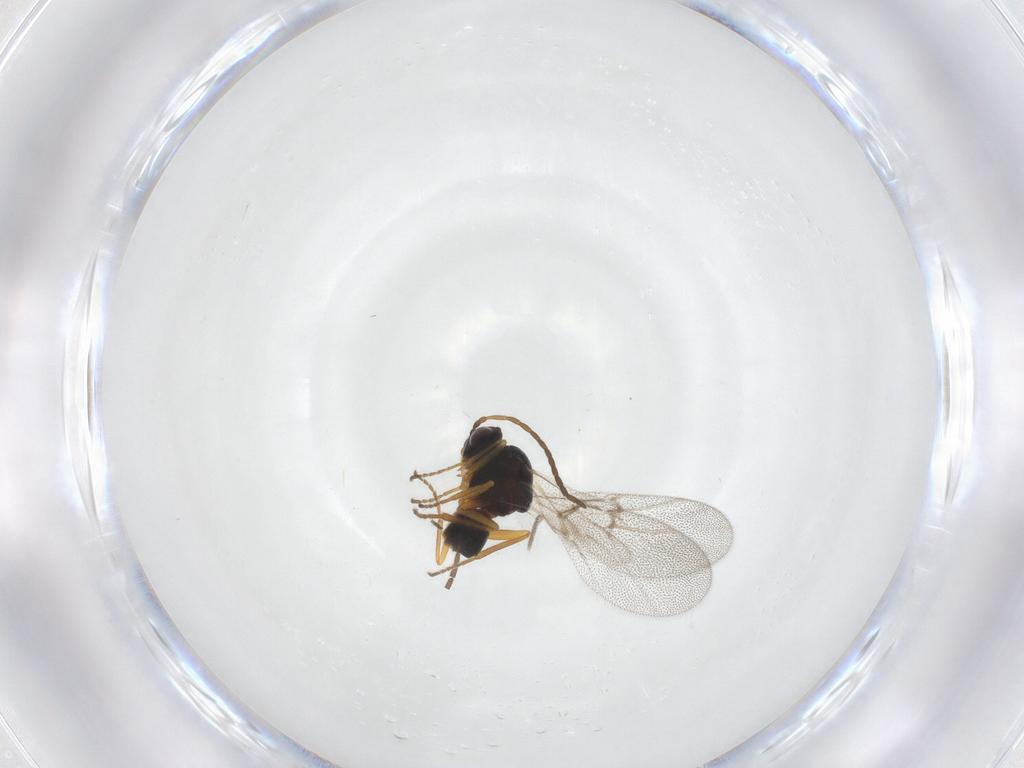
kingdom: Animalia
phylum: Arthropoda
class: Insecta
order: Hymenoptera
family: Cynipidae
